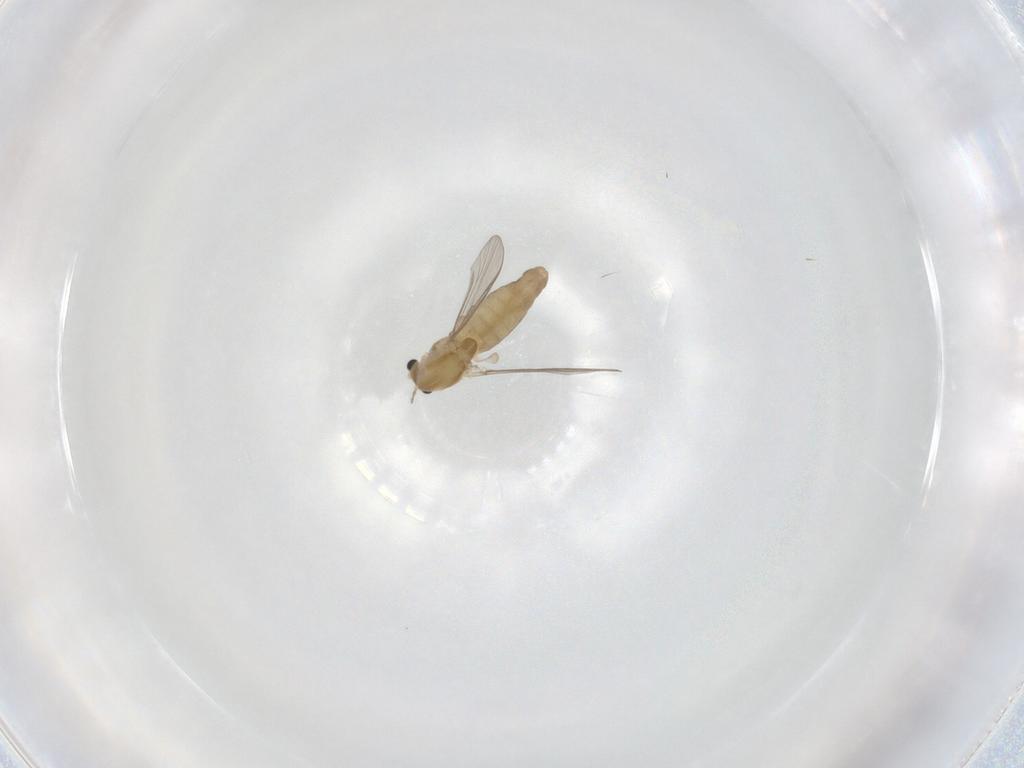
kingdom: Animalia
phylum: Arthropoda
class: Insecta
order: Diptera
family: Chironomidae
